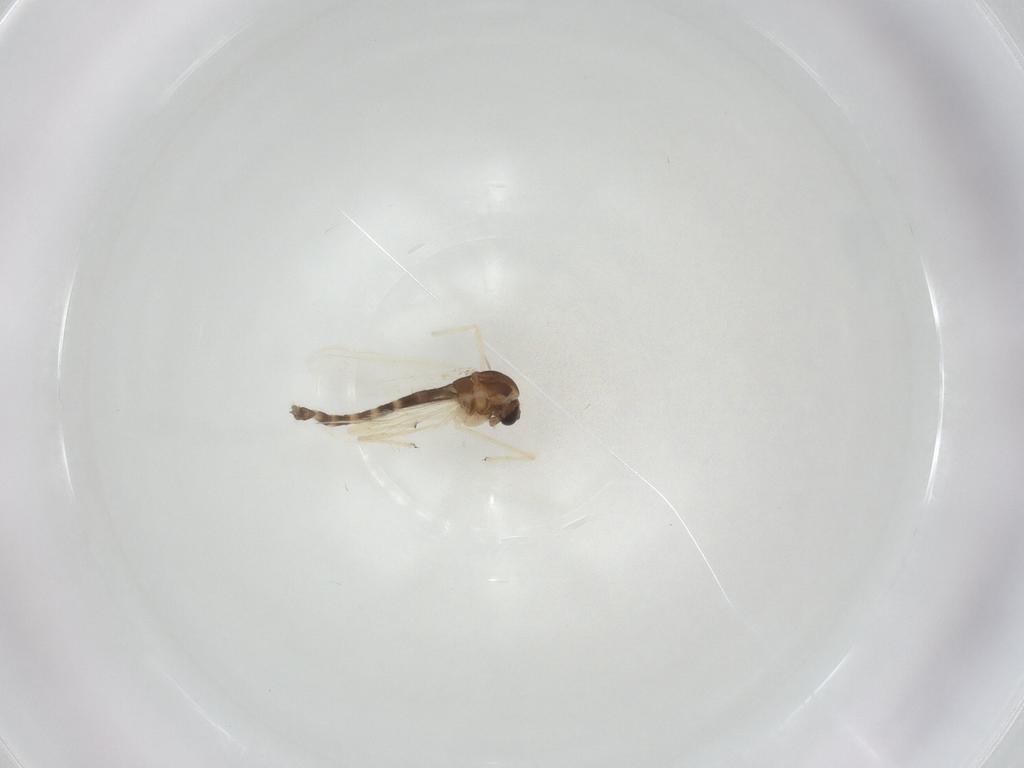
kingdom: Animalia
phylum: Arthropoda
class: Insecta
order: Diptera
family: Chironomidae
